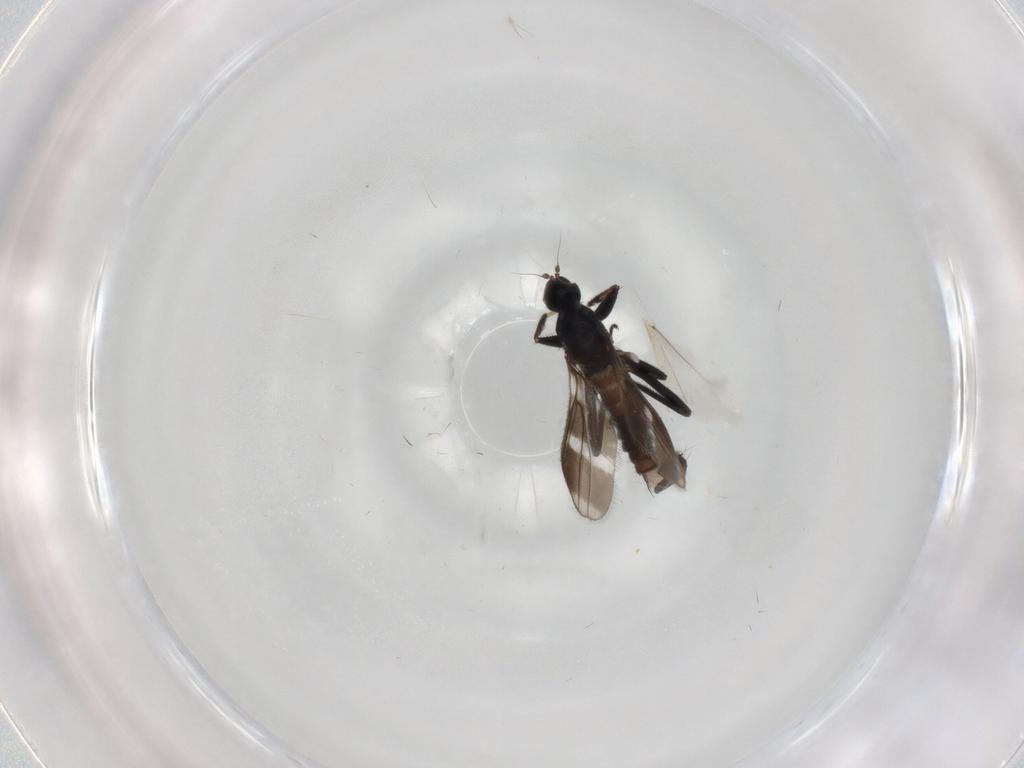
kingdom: Animalia
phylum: Arthropoda
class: Insecta
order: Diptera
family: Hybotidae
